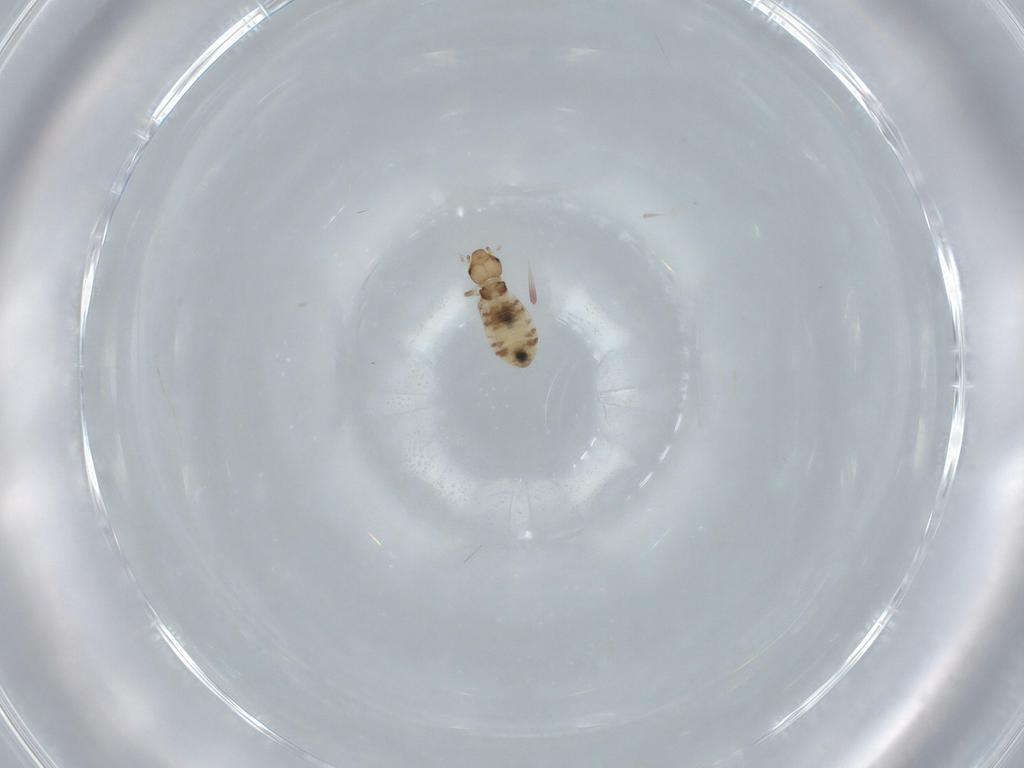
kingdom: Animalia
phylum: Arthropoda
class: Insecta
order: Psocodea
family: Liposcelididae
